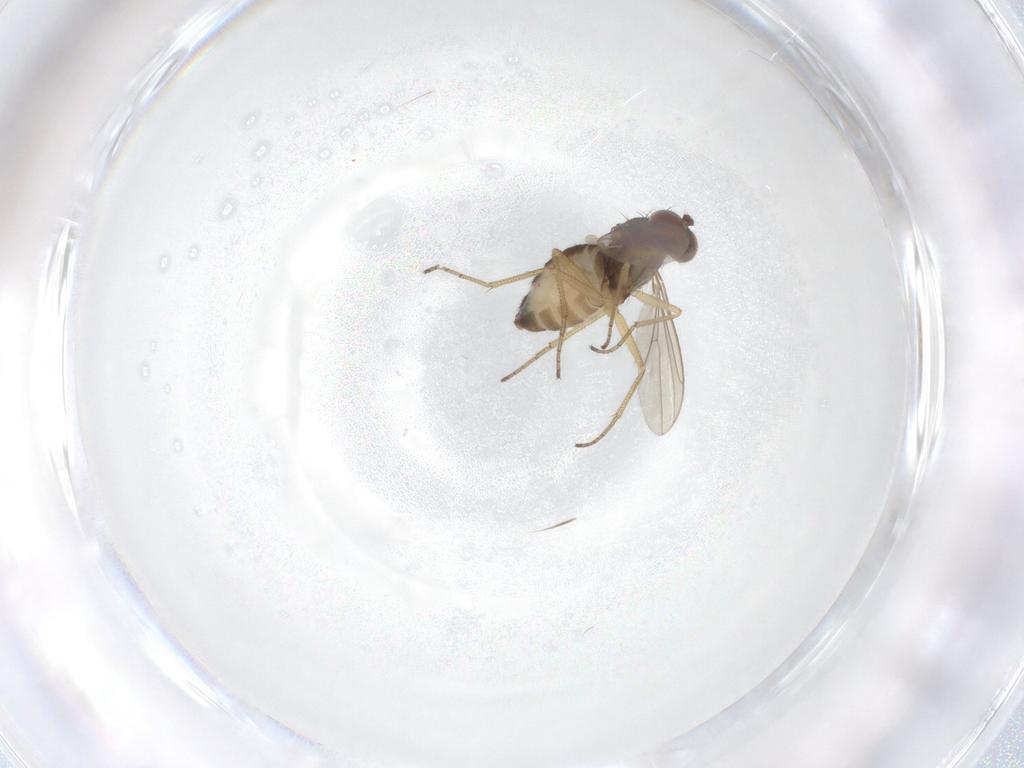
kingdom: Animalia
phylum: Arthropoda
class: Insecta
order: Diptera
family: Dolichopodidae
